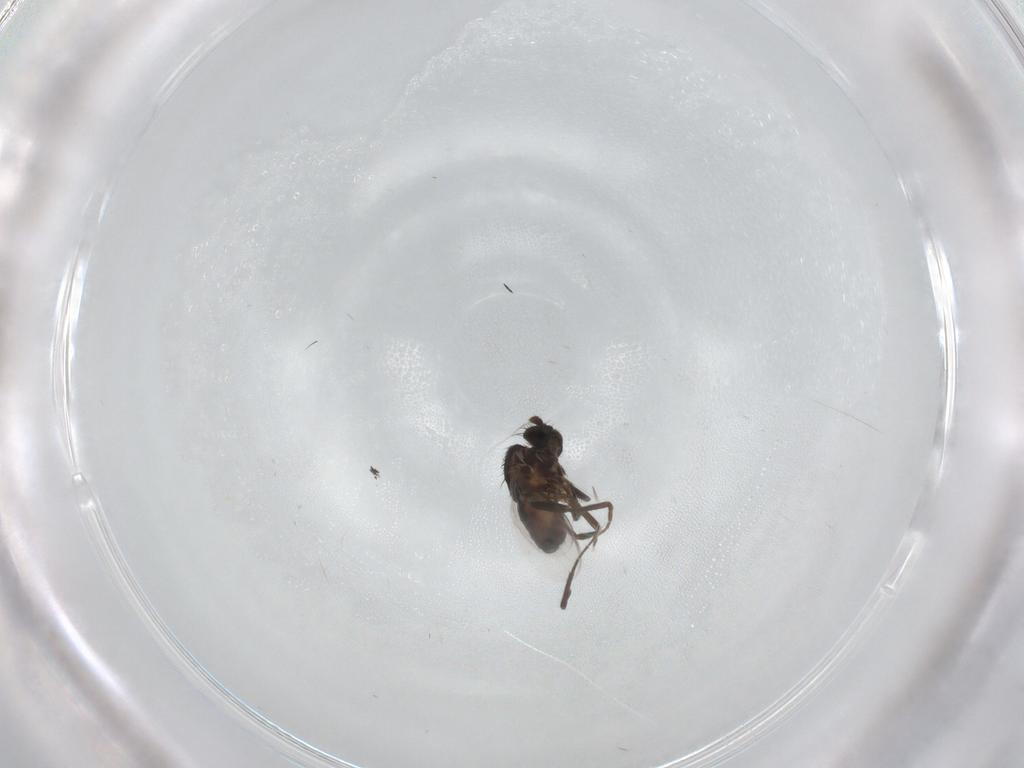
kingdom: Animalia
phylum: Arthropoda
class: Insecta
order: Diptera
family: Sphaeroceridae
